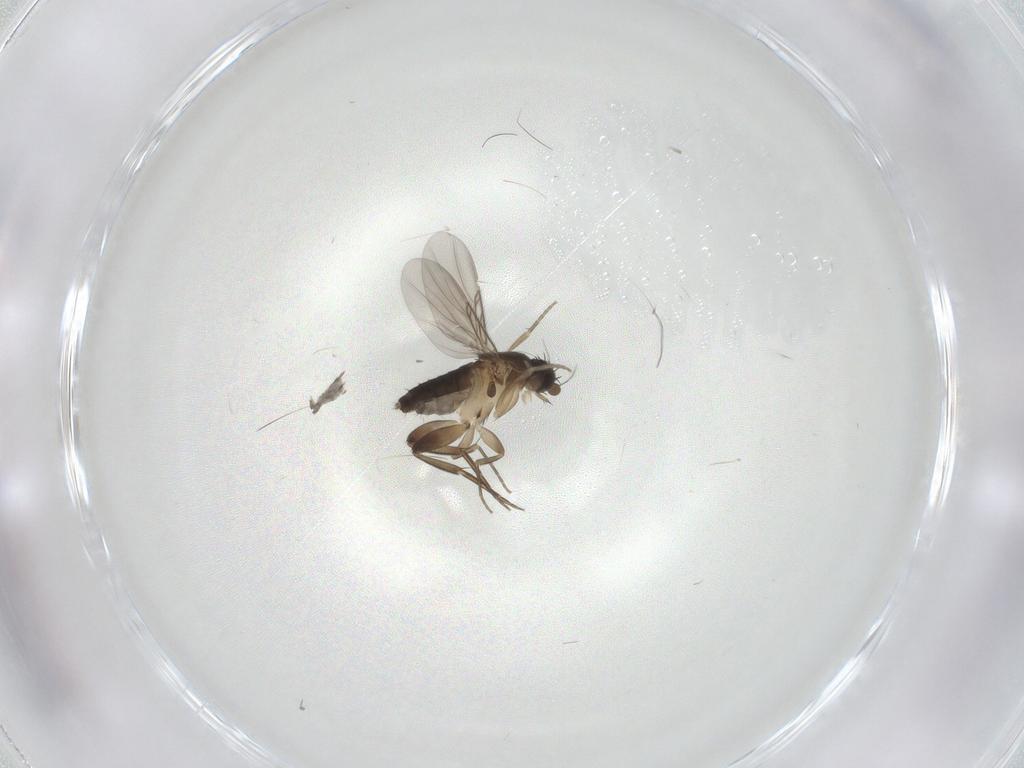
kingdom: Animalia
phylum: Arthropoda
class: Insecta
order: Diptera
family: Phoridae
